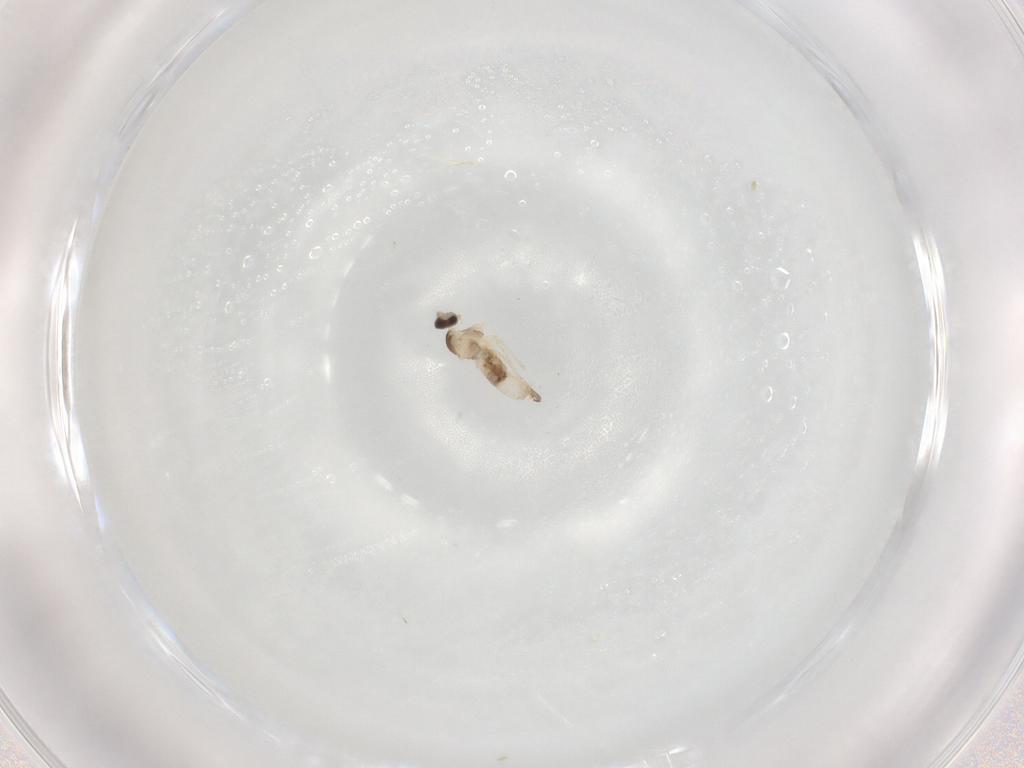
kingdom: Animalia
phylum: Arthropoda
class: Insecta
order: Diptera
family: Cecidomyiidae
